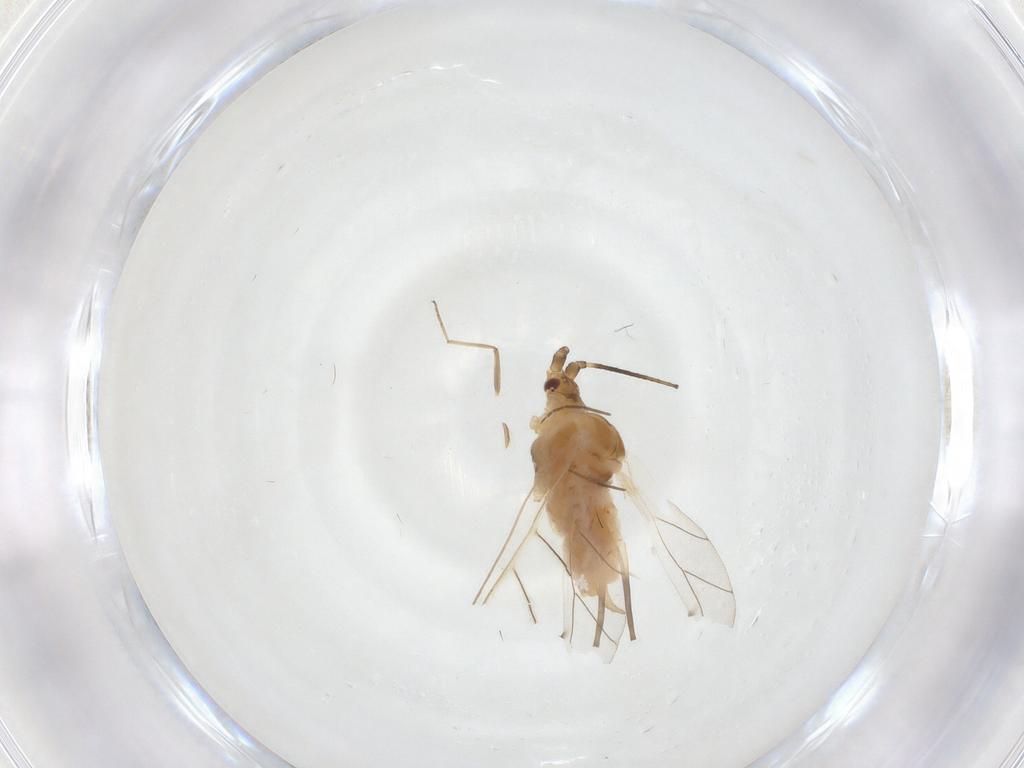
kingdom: Animalia
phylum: Arthropoda
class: Insecta
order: Hemiptera
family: Aphididae
